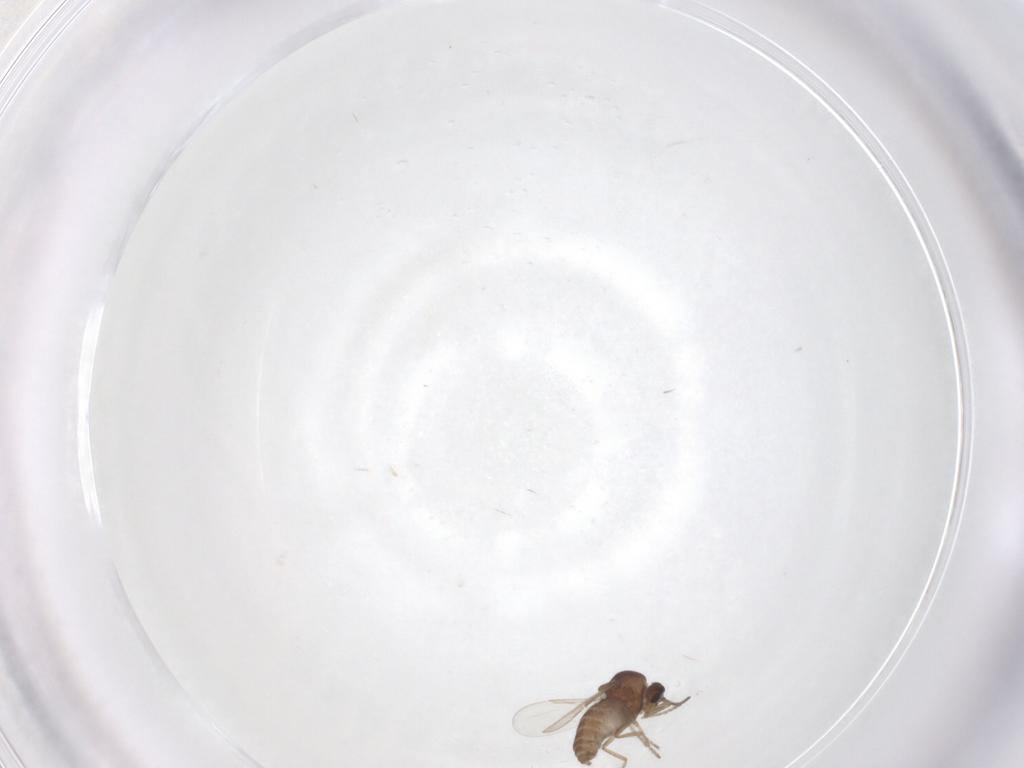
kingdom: Animalia
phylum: Arthropoda
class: Insecta
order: Diptera
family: Ceratopogonidae
